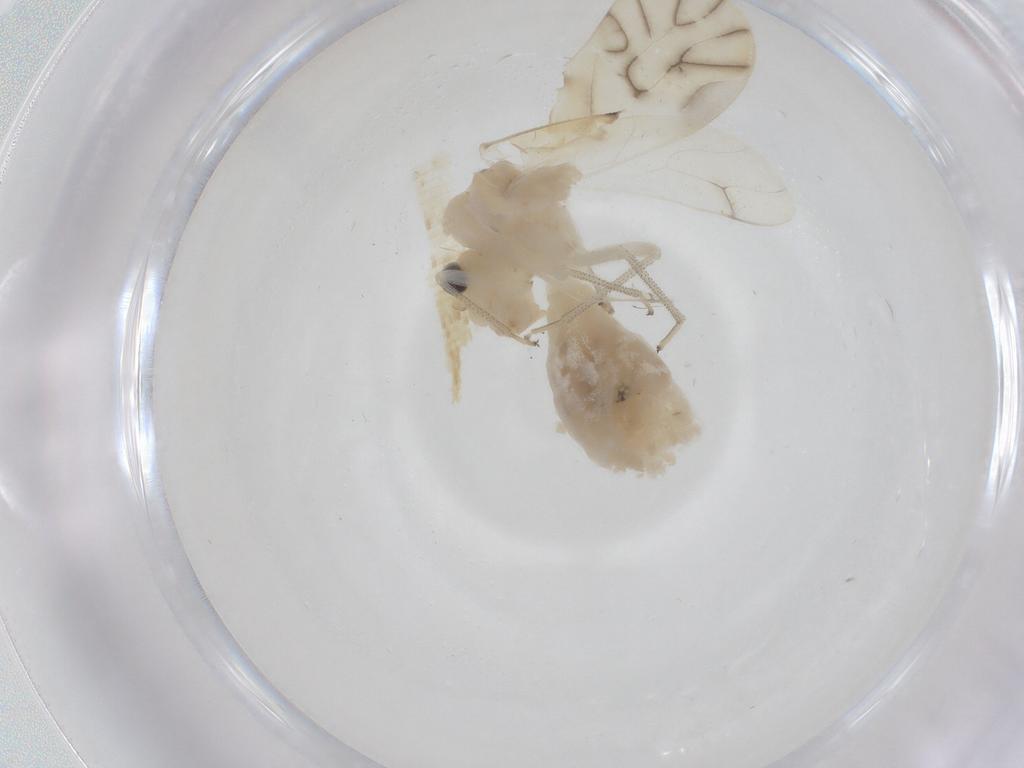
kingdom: Animalia
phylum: Arthropoda
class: Insecta
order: Psocodea
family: Caeciliusidae
